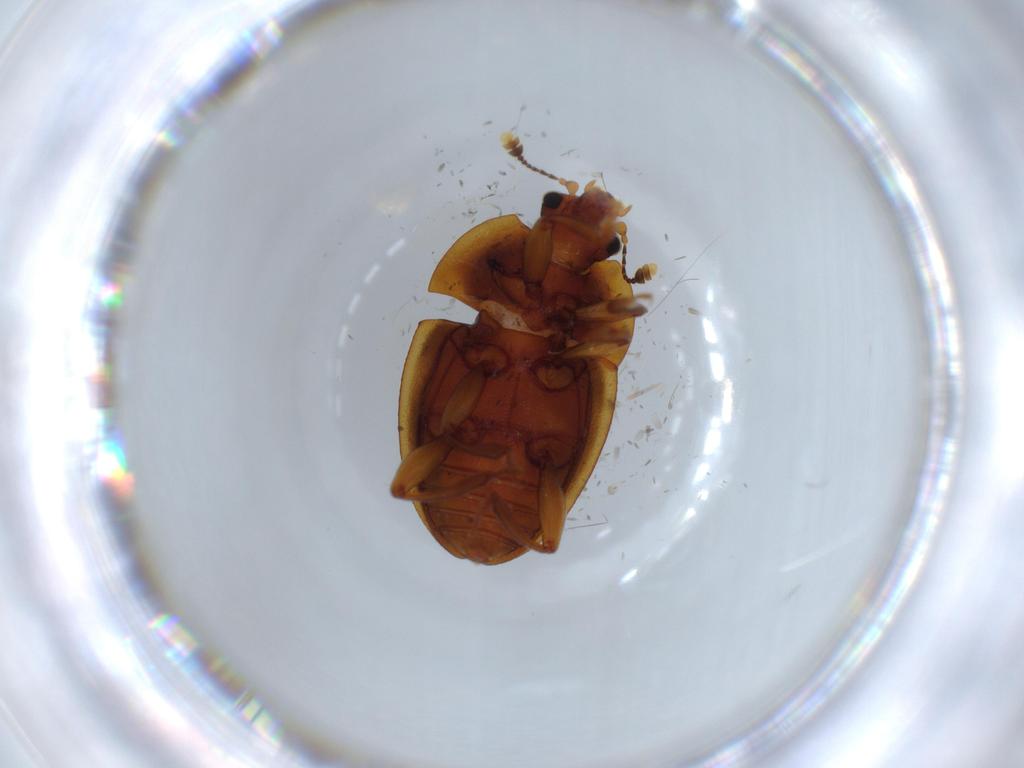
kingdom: Animalia
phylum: Arthropoda
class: Insecta
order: Coleoptera
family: Nitidulidae
